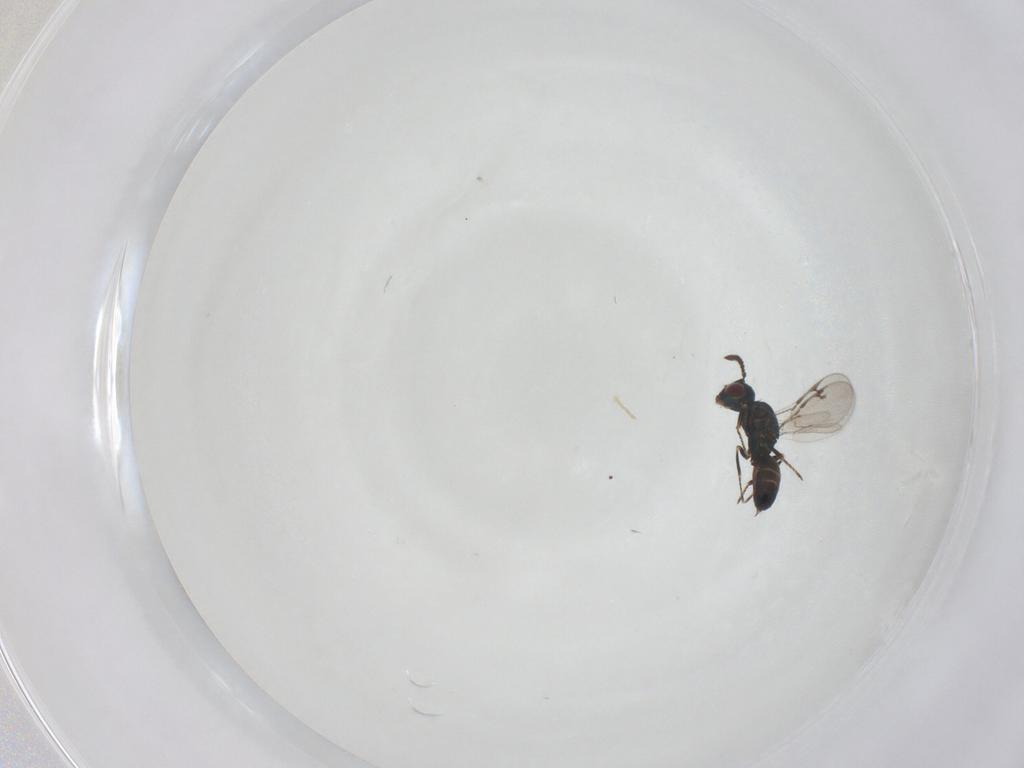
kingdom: Animalia
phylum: Arthropoda
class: Insecta
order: Hymenoptera
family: Pteromalidae
